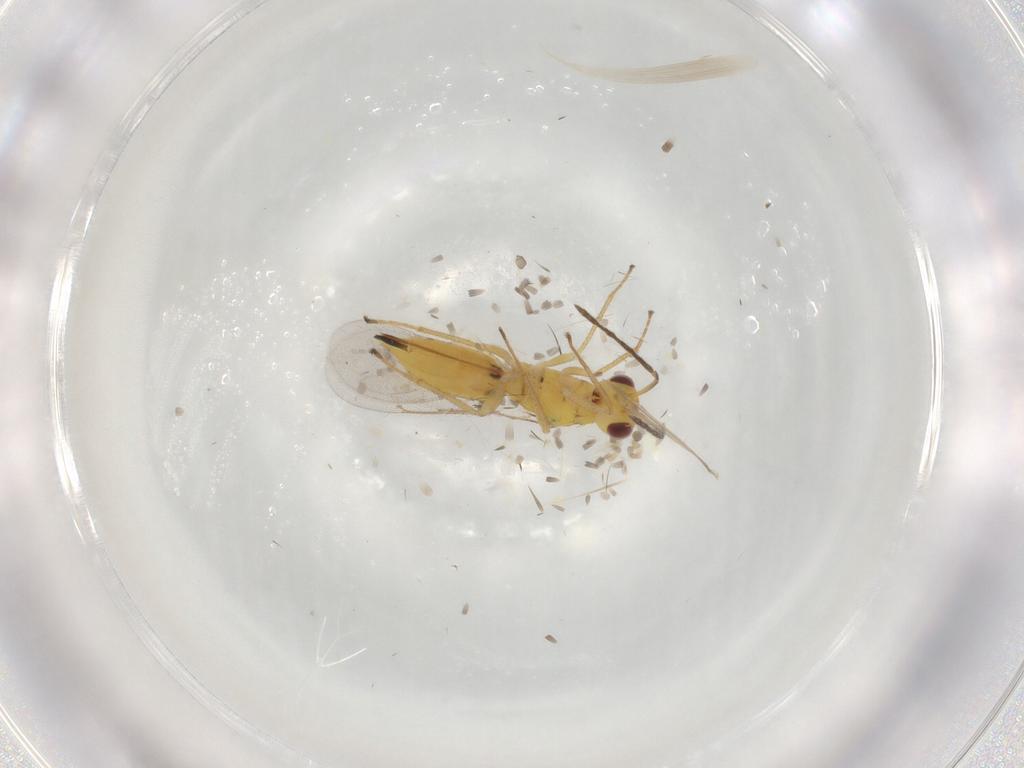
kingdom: Animalia
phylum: Arthropoda
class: Insecta
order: Hymenoptera
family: Eulophidae
